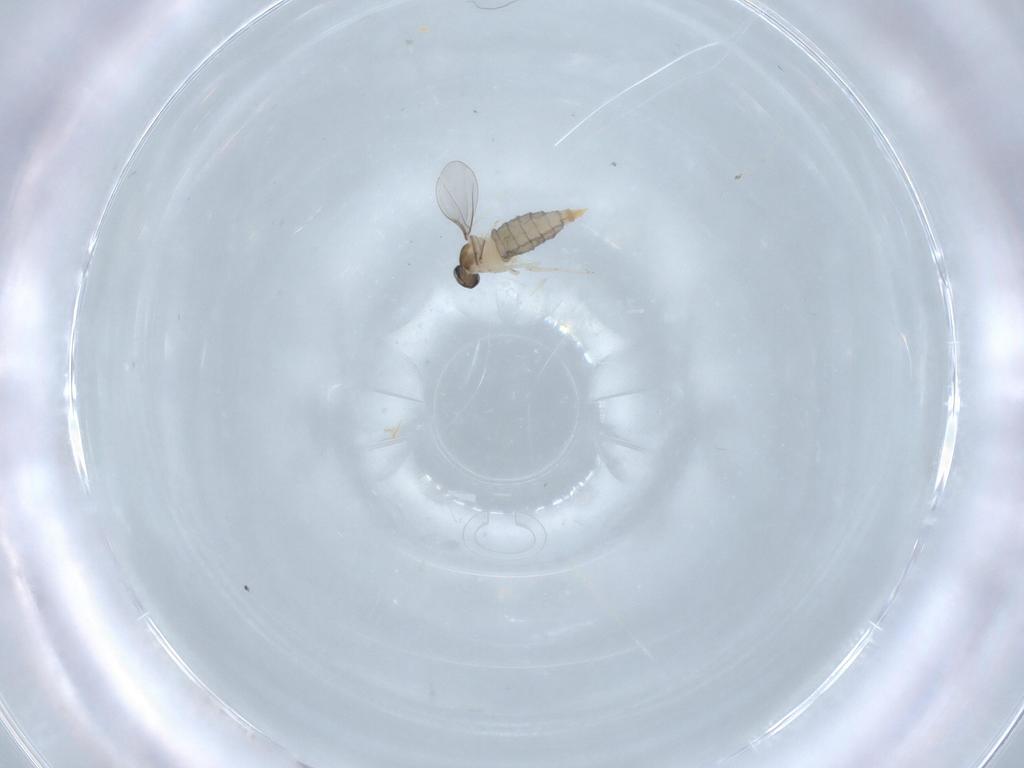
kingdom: Animalia
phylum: Arthropoda
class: Insecta
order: Diptera
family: Cecidomyiidae
